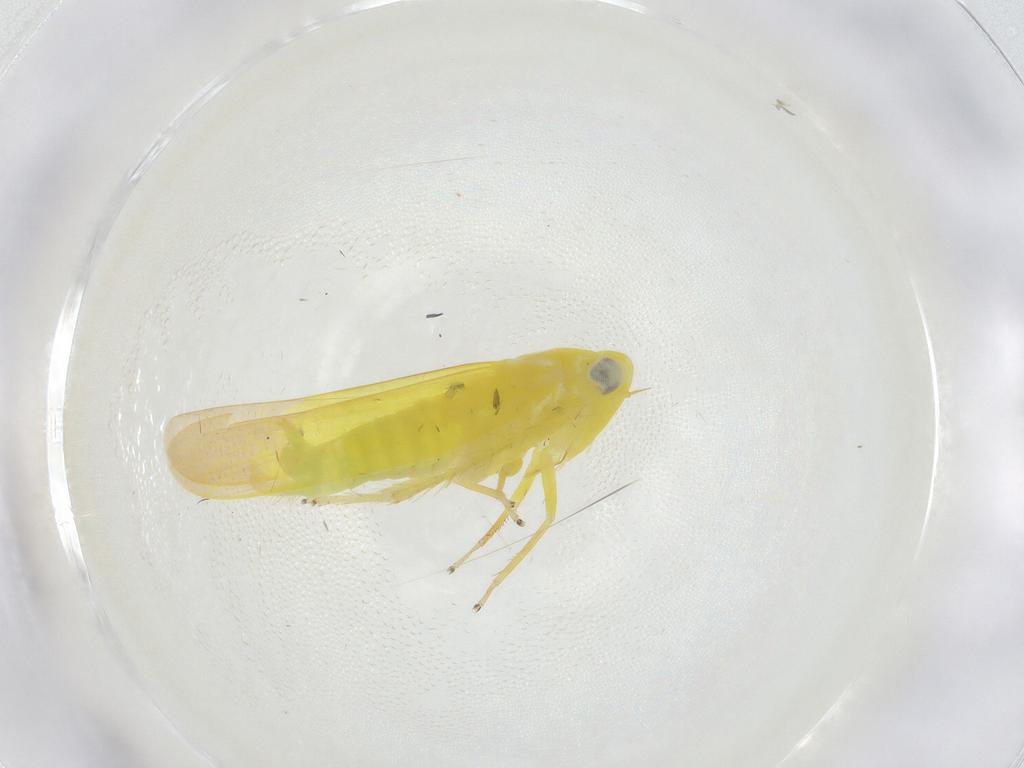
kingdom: Animalia
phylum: Arthropoda
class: Insecta
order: Hemiptera
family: Cicadellidae
